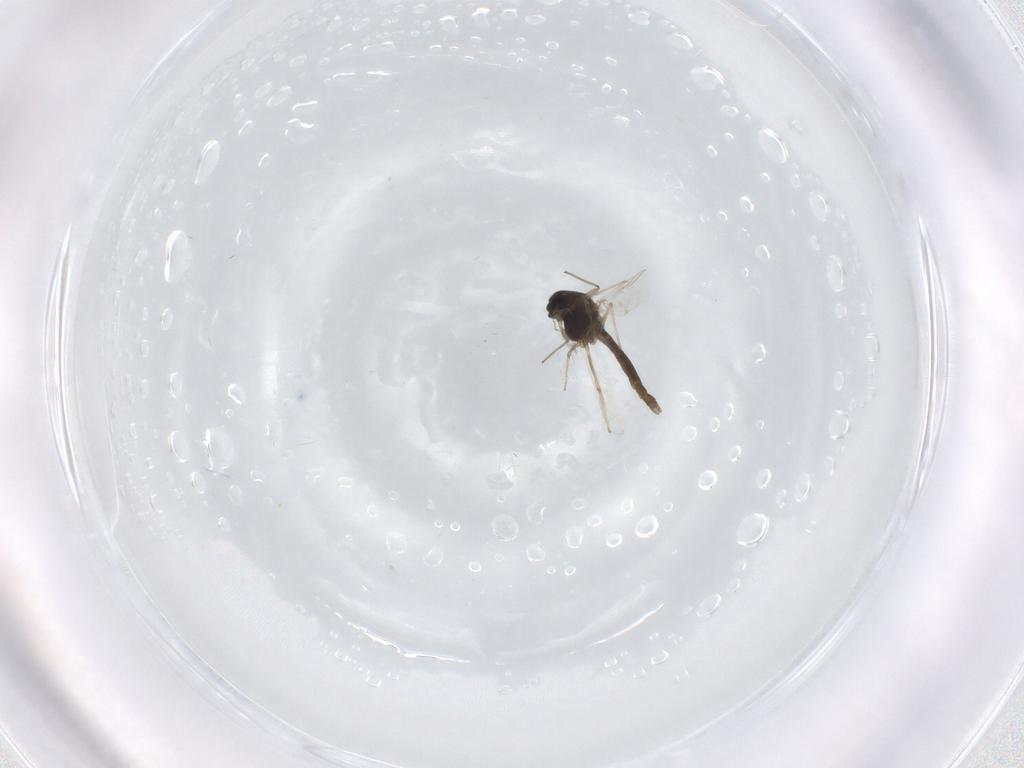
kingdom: Animalia
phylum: Arthropoda
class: Insecta
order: Diptera
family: Chironomidae
